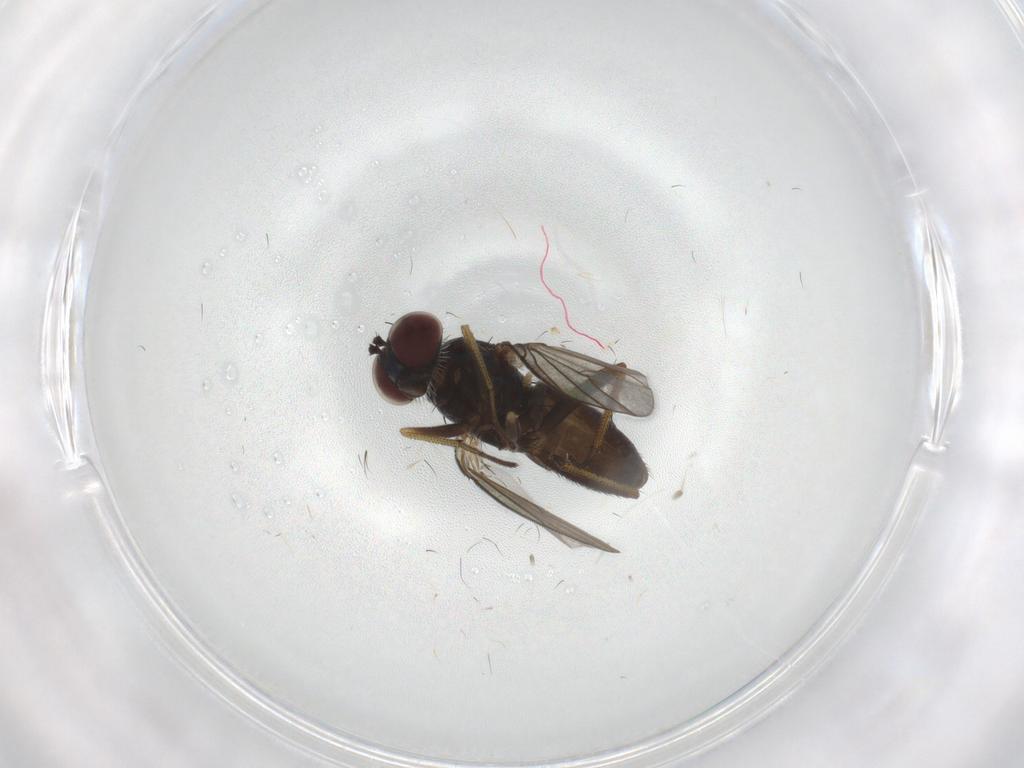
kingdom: Animalia
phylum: Arthropoda
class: Insecta
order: Diptera
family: Dolichopodidae
